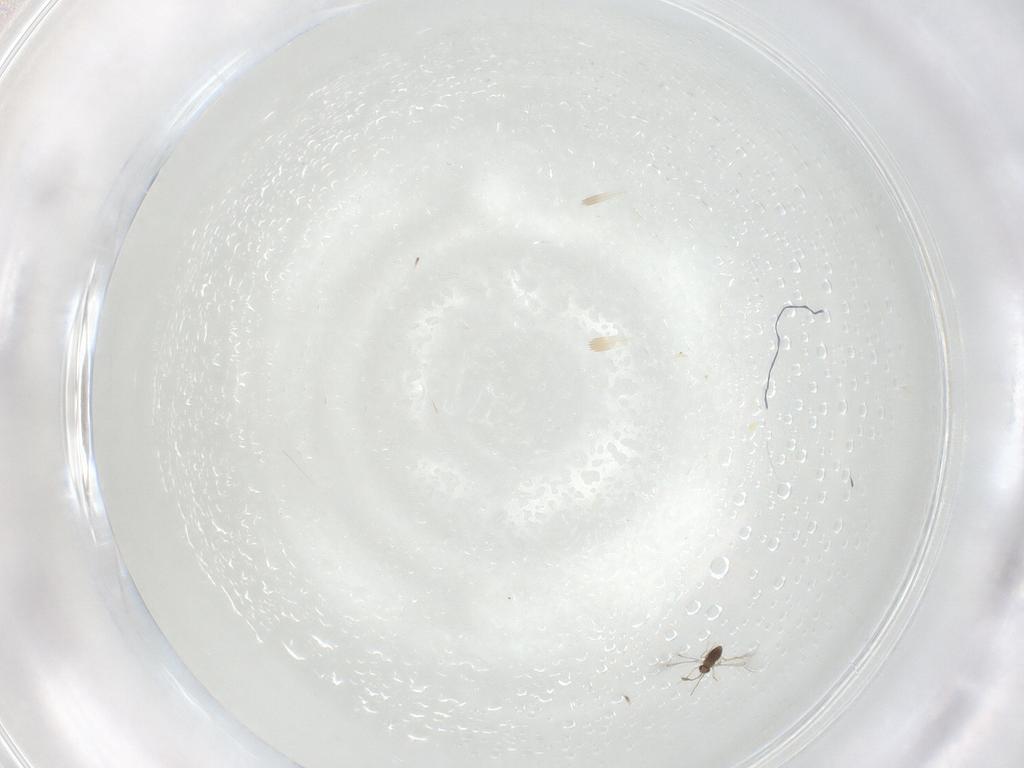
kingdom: Animalia
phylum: Arthropoda
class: Insecta
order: Coleoptera
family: Chrysomelidae
